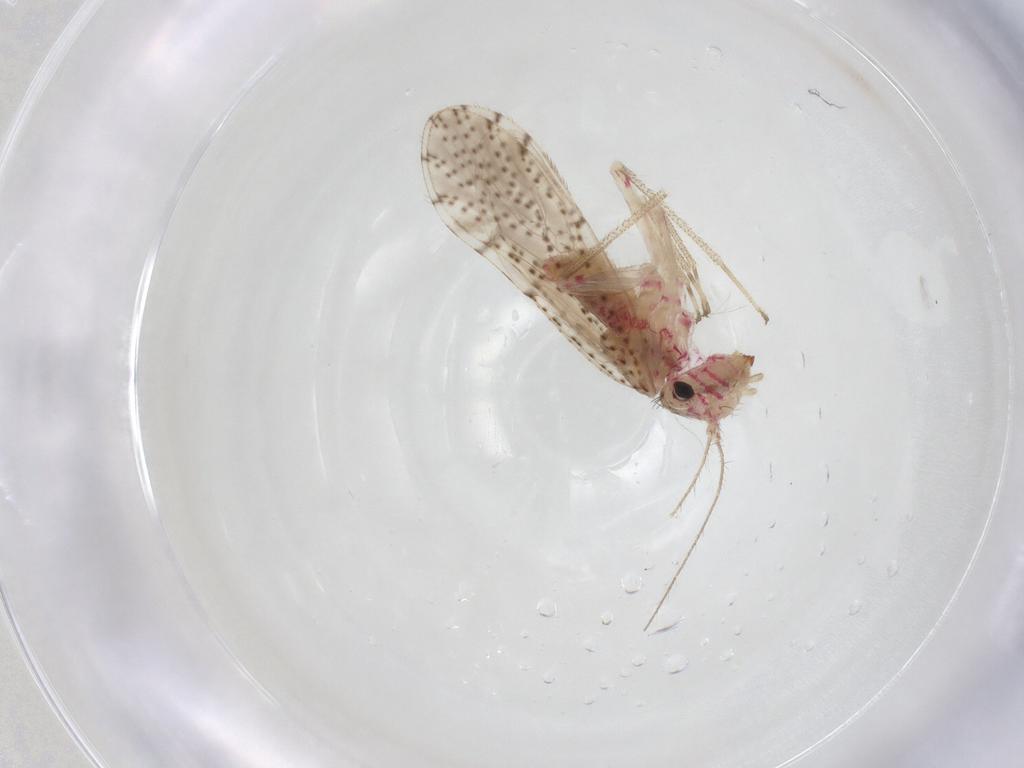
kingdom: Animalia
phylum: Arthropoda
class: Insecta
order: Psocodea
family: Philotarsidae
